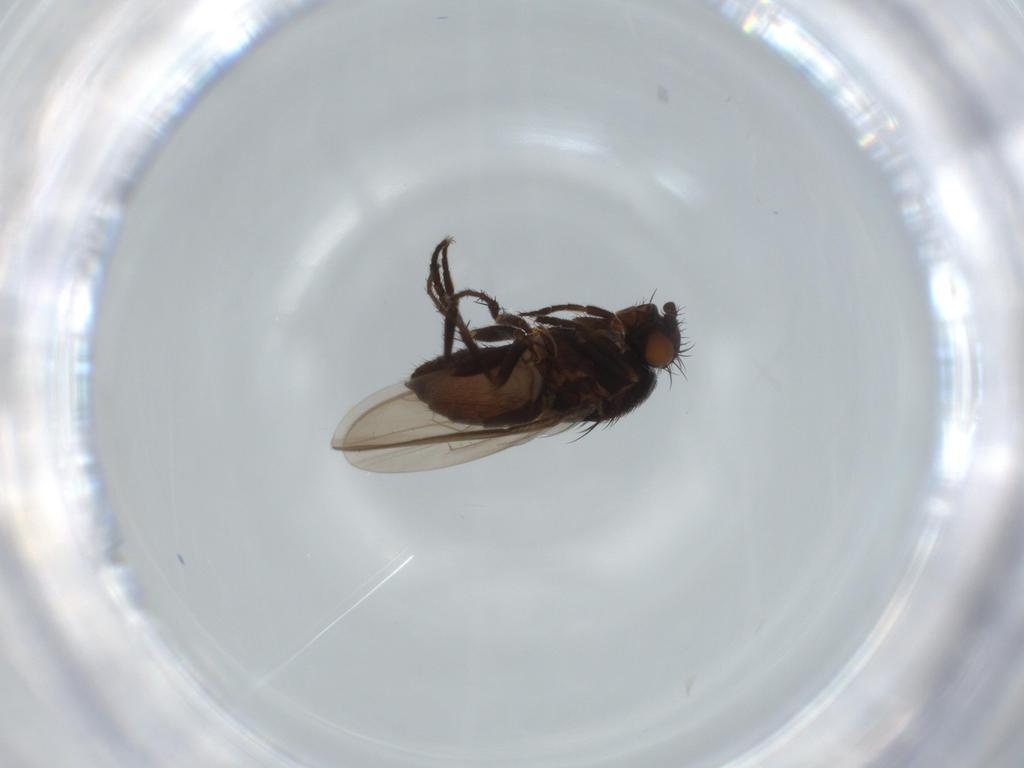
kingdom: Animalia
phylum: Arthropoda
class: Insecta
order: Diptera
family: Sphaeroceridae
